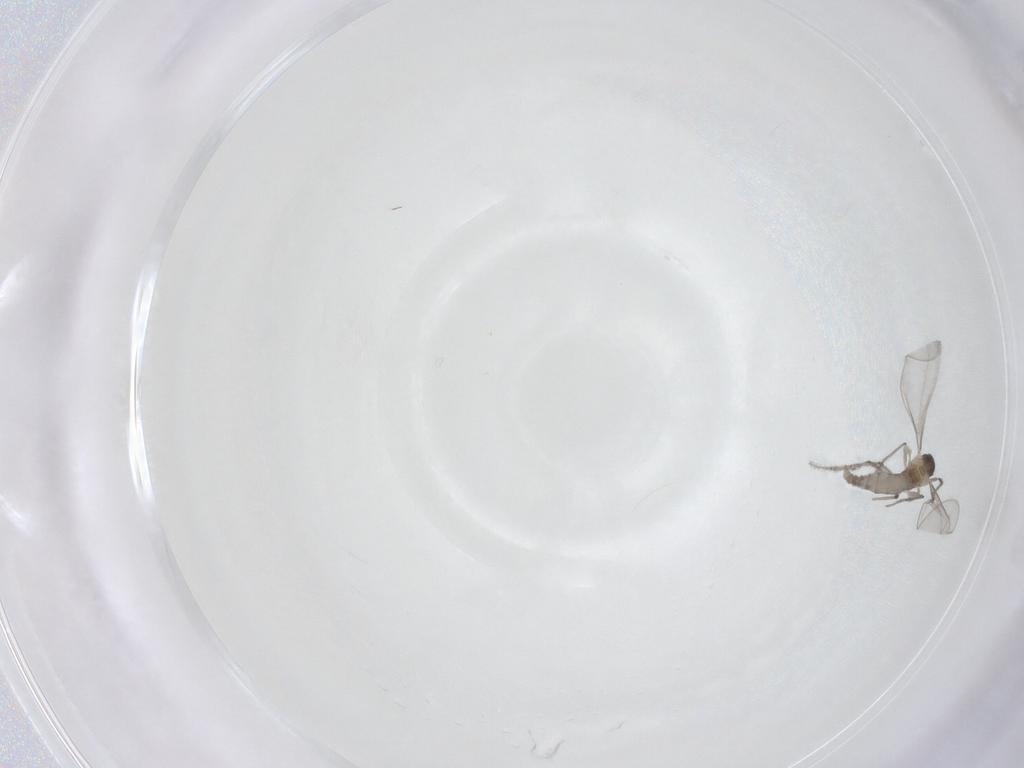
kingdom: Animalia
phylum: Arthropoda
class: Insecta
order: Diptera
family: Cecidomyiidae
